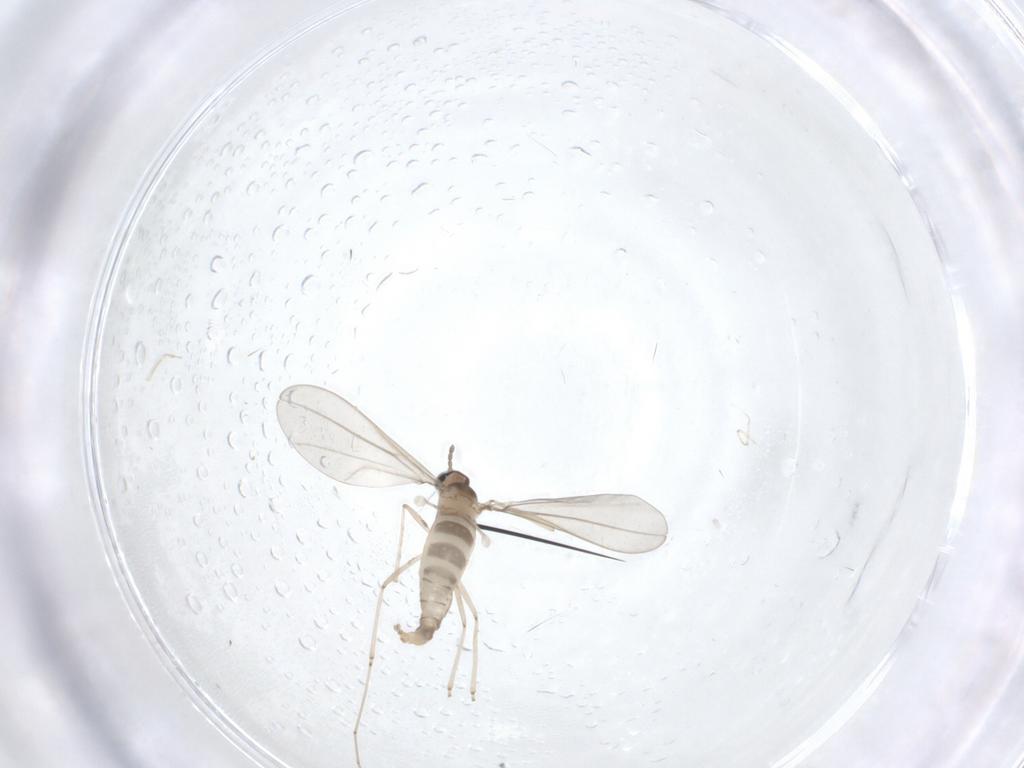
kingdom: Animalia
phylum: Arthropoda
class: Insecta
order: Diptera
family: Cecidomyiidae
